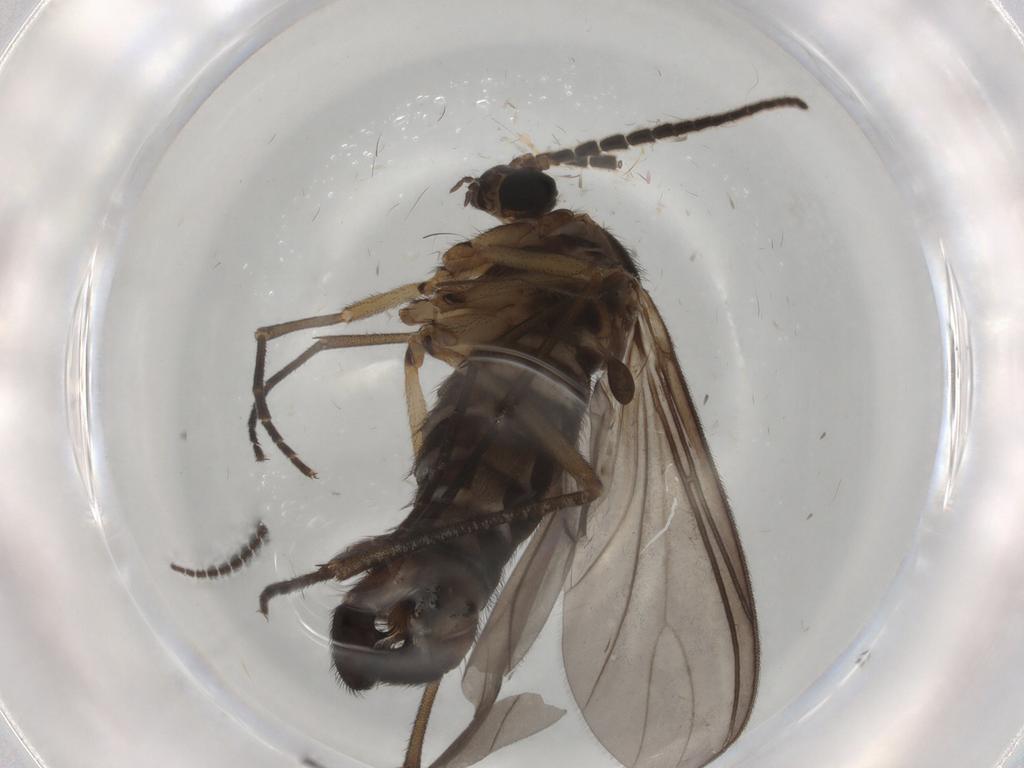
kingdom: Animalia
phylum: Arthropoda
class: Insecta
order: Diptera
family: Sciaridae
